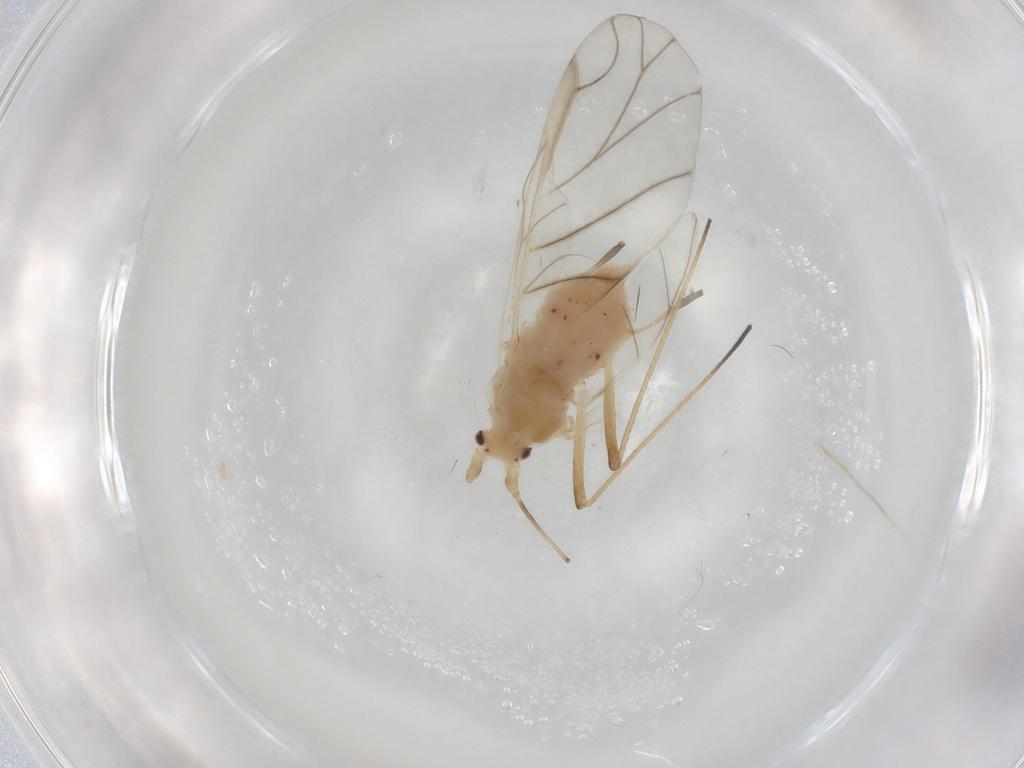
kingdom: Animalia
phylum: Arthropoda
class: Insecta
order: Hemiptera
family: Aphididae
